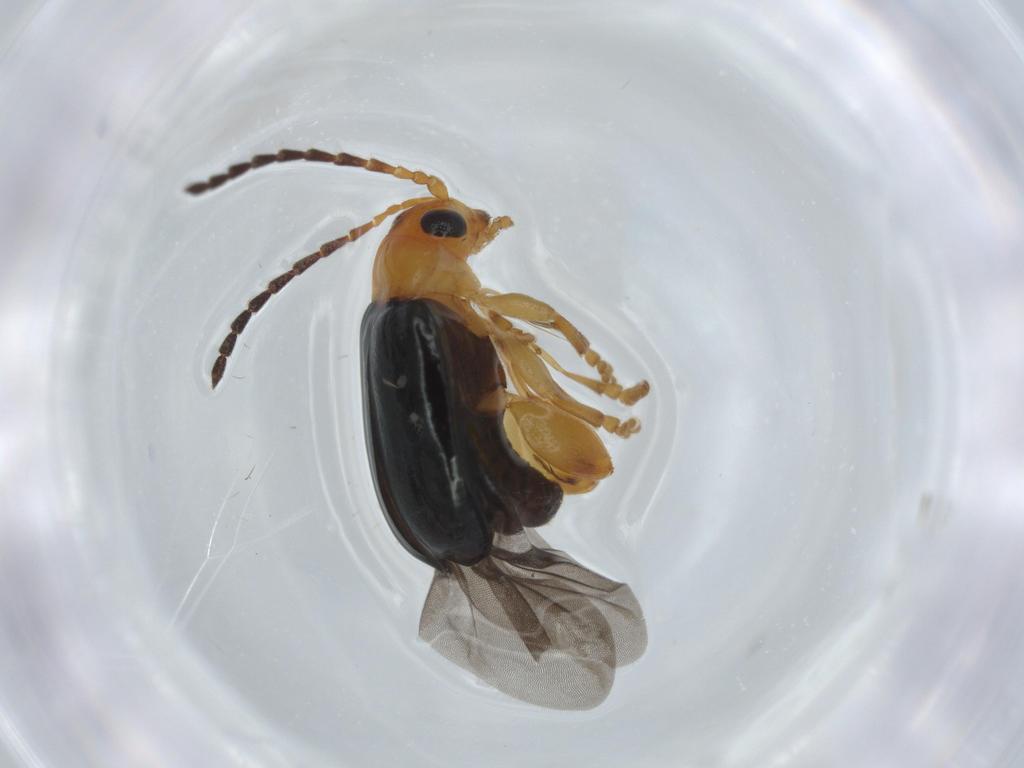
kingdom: Animalia
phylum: Arthropoda
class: Insecta
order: Coleoptera
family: Chrysomelidae
